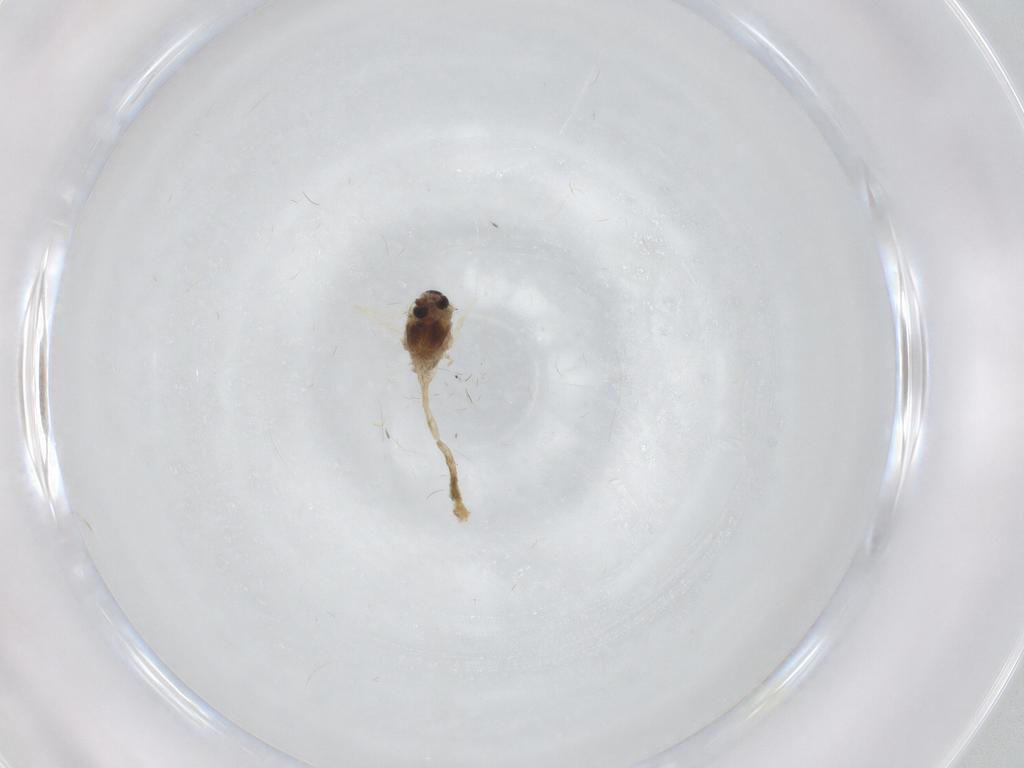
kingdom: Animalia
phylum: Arthropoda
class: Insecta
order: Diptera
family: Chironomidae
